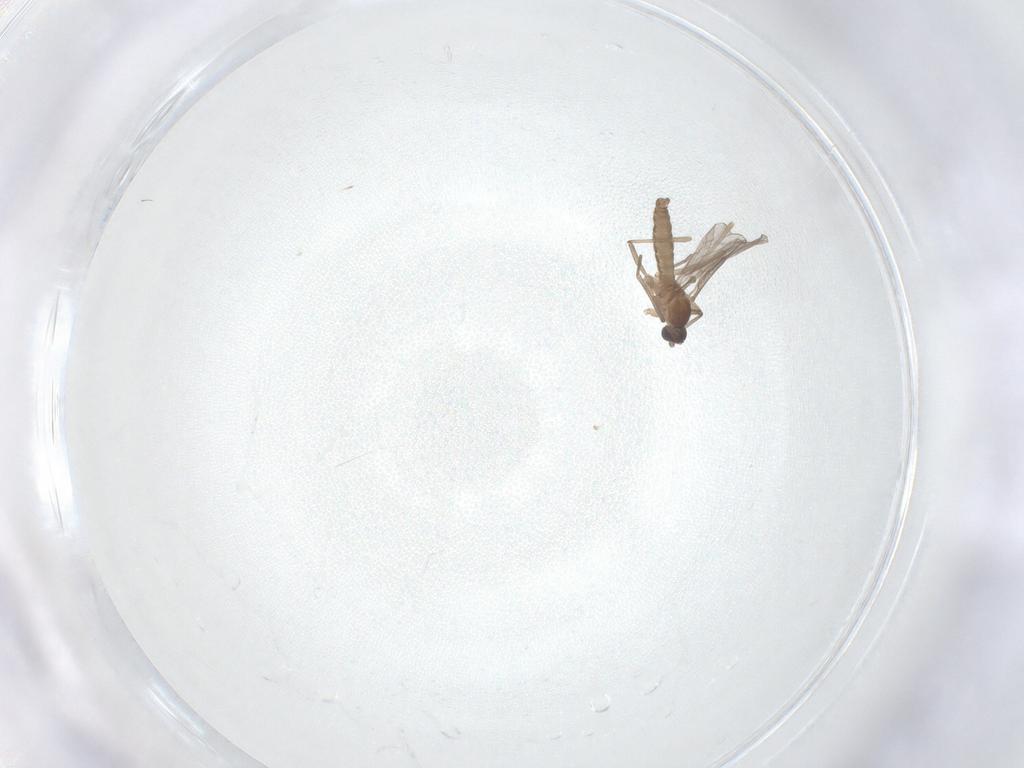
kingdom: Animalia
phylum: Arthropoda
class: Insecta
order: Diptera
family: Cecidomyiidae
